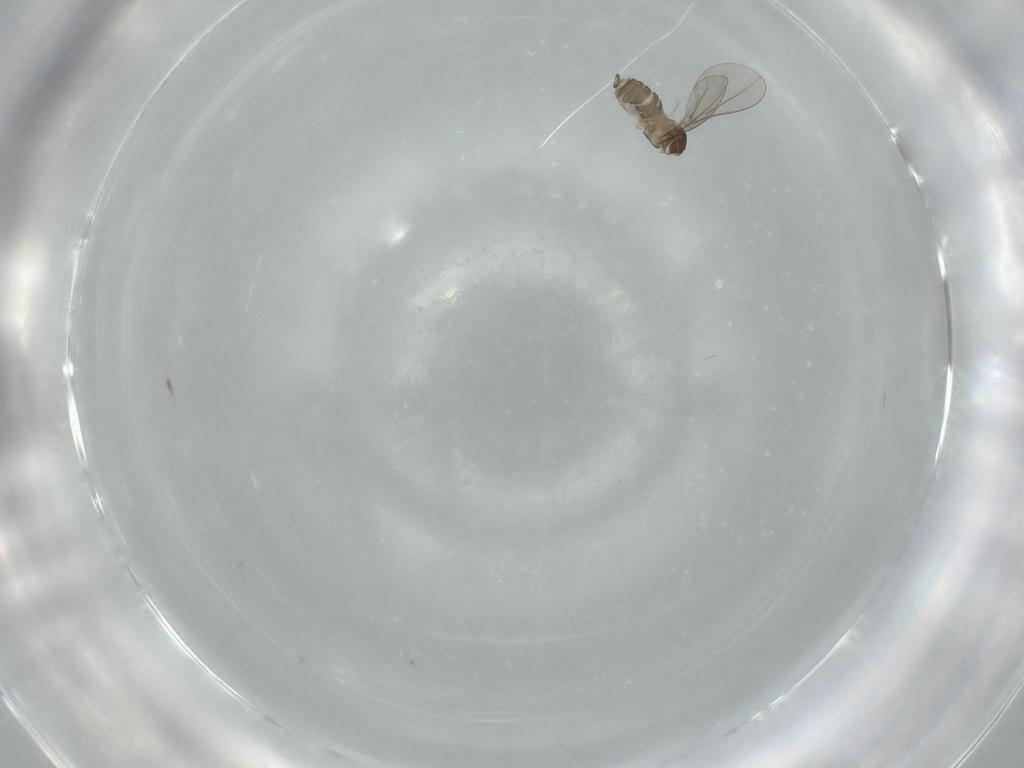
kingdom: Animalia
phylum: Arthropoda
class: Insecta
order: Diptera
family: Cecidomyiidae
